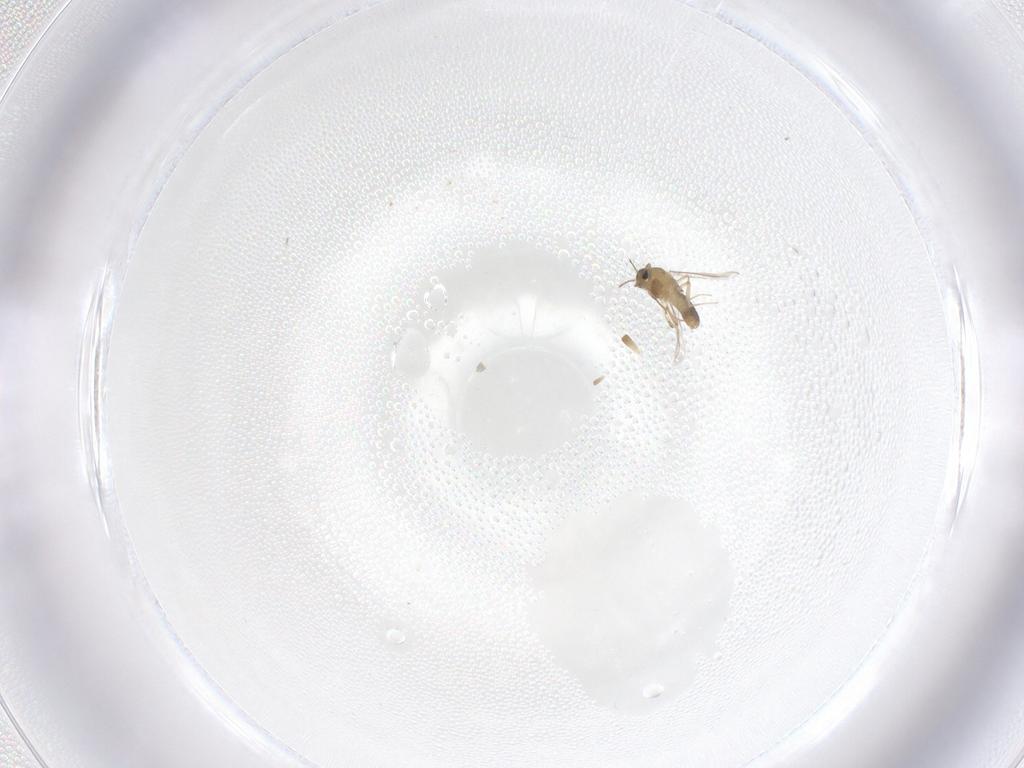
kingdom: Animalia
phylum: Arthropoda
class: Insecta
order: Diptera
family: Chironomidae
